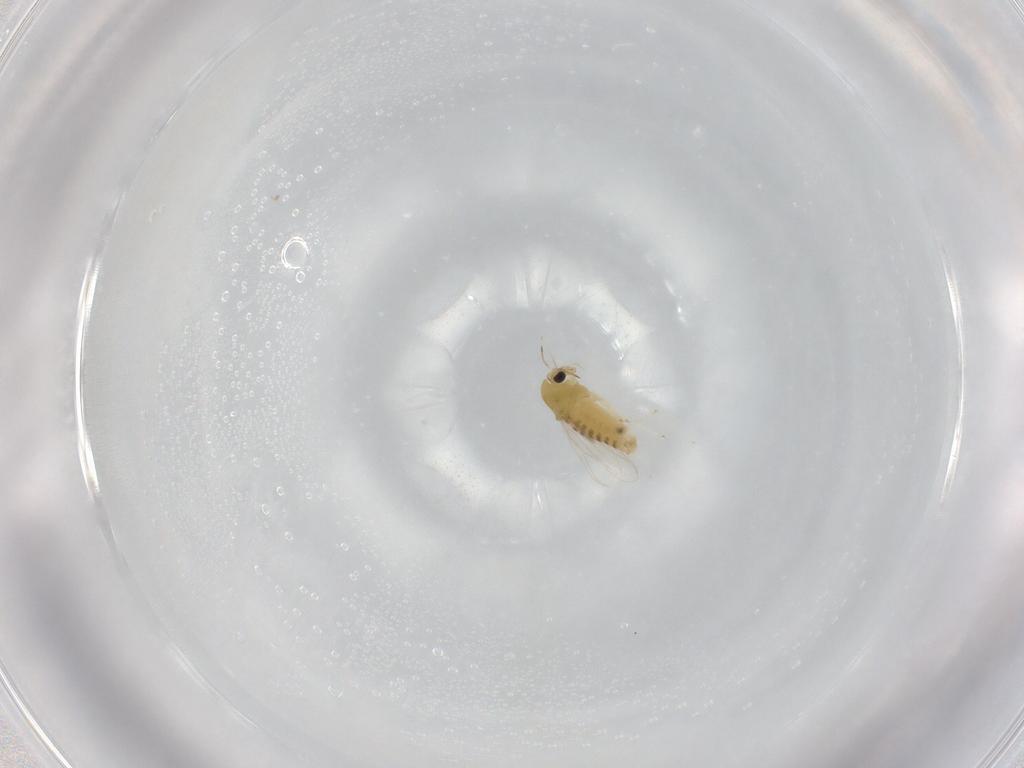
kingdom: Animalia
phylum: Arthropoda
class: Insecta
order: Diptera
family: Chironomidae
